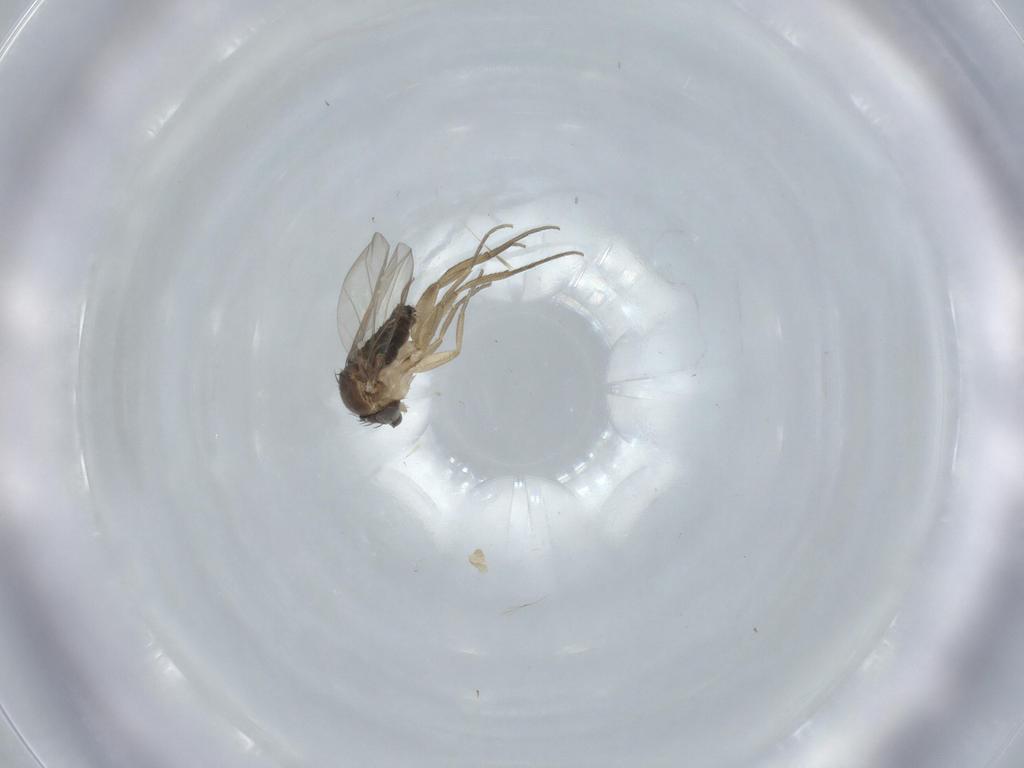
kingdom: Animalia
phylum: Arthropoda
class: Insecta
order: Diptera
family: Phoridae
